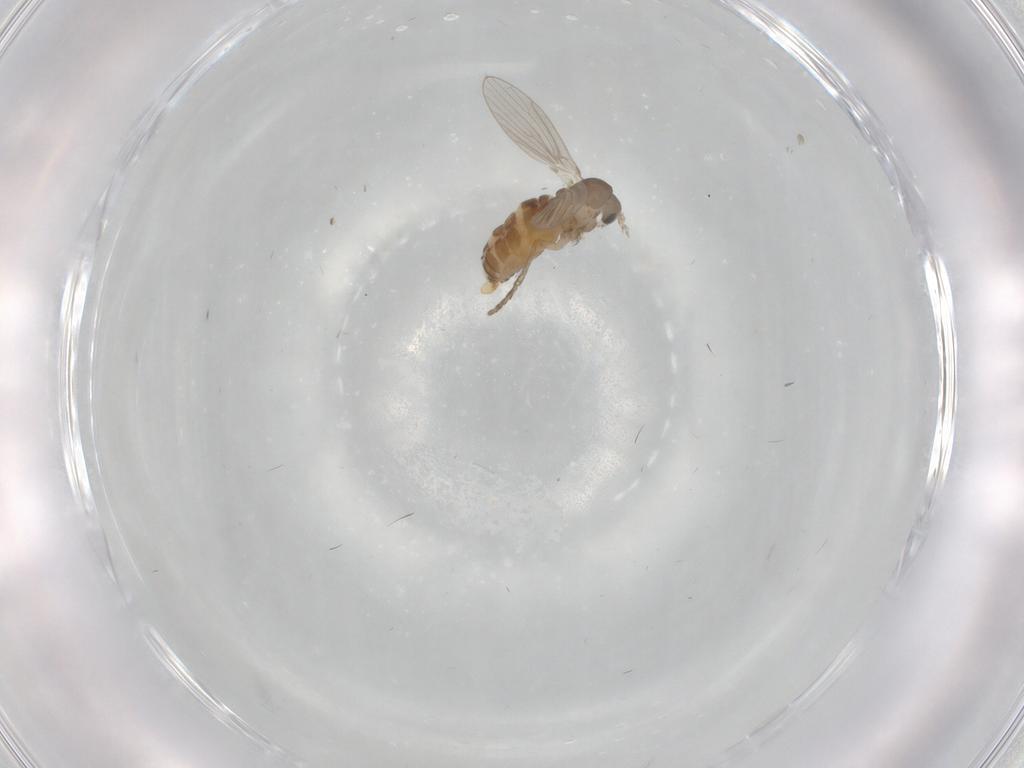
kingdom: Animalia
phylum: Arthropoda
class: Insecta
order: Diptera
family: Psychodidae
